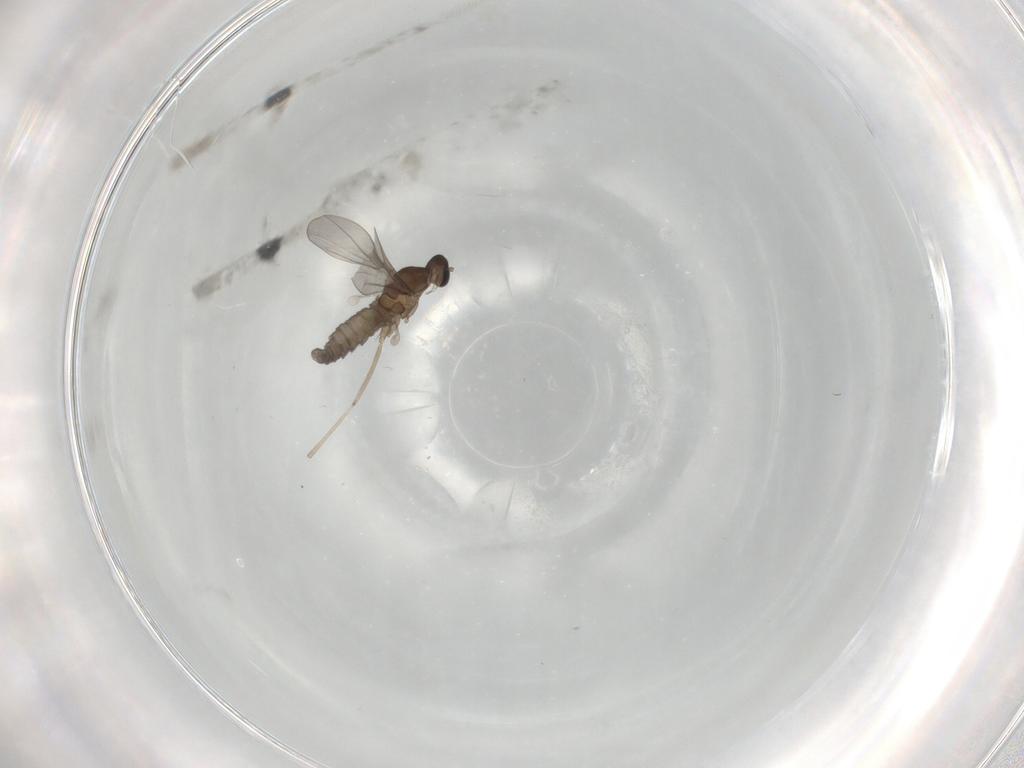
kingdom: Animalia
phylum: Arthropoda
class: Insecta
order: Diptera
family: Cecidomyiidae
